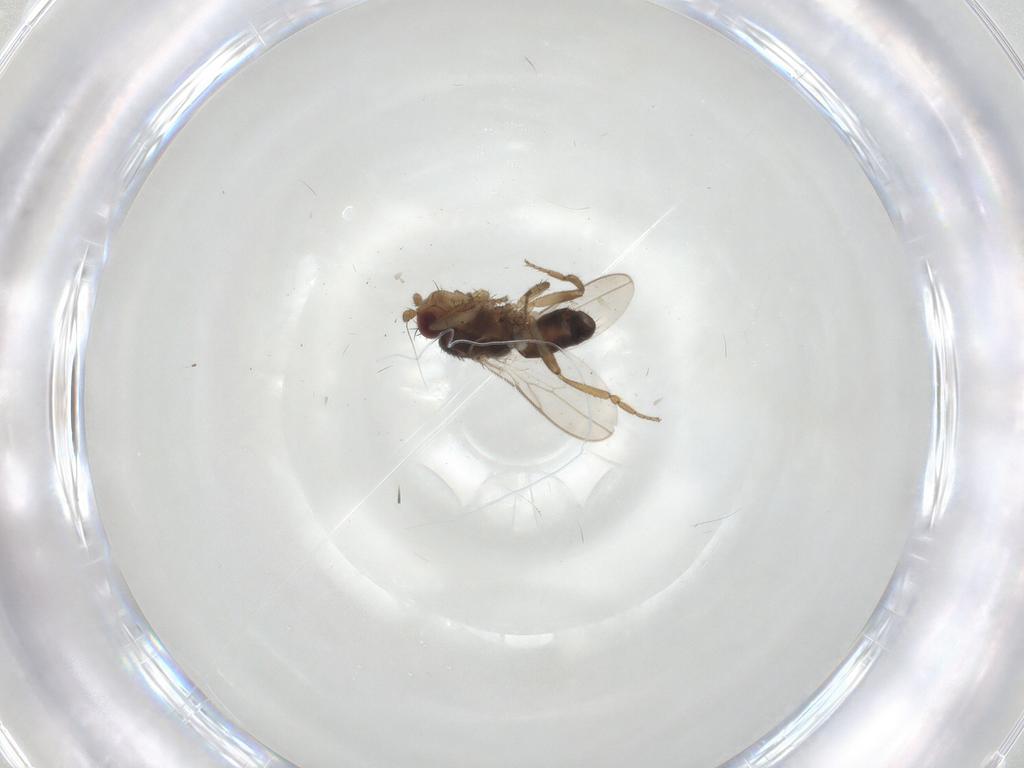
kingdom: Animalia
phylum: Arthropoda
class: Insecta
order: Diptera
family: Sphaeroceridae
